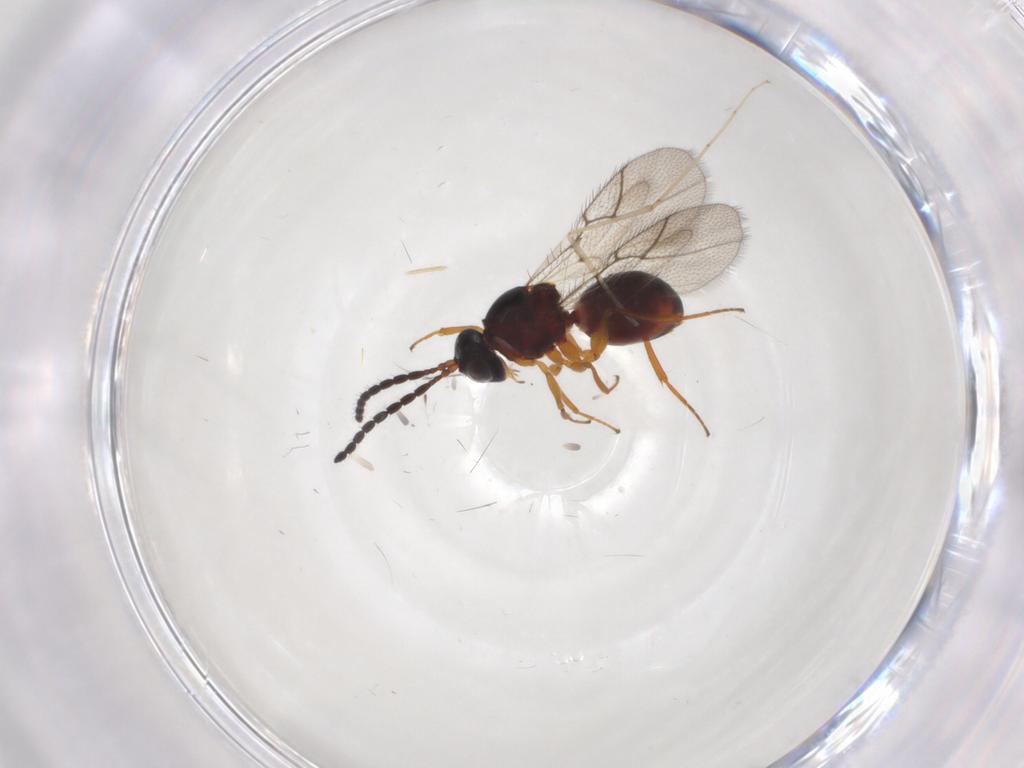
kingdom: Animalia
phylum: Arthropoda
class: Insecta
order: Hymenoptera
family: Figitidae
